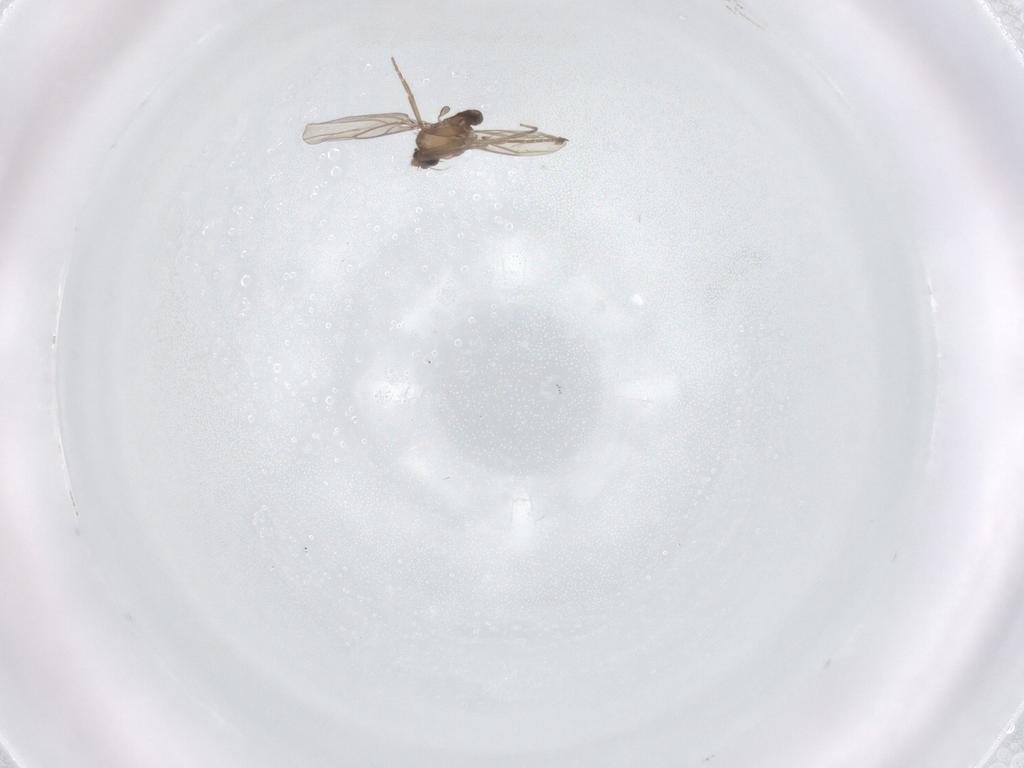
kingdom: Animalia
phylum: Arthropoda
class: Insecta
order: Diptera
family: Phoridae
